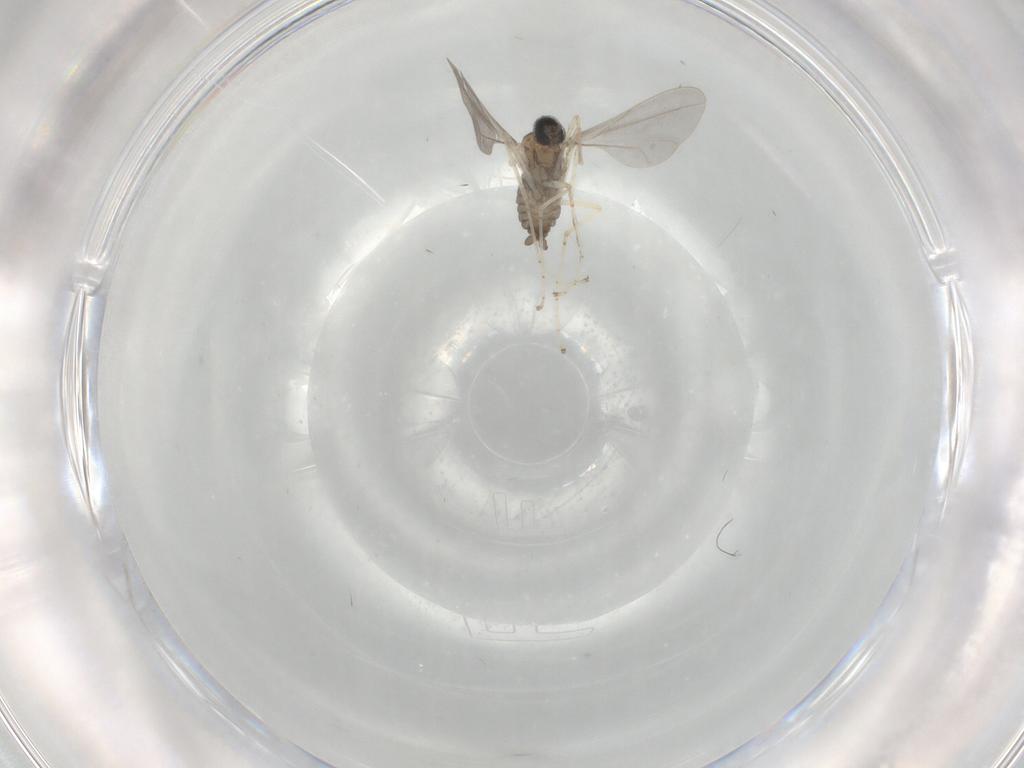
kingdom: Animalia
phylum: Arthropoda
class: Insecta
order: Diptera
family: Cecidomyiidae
